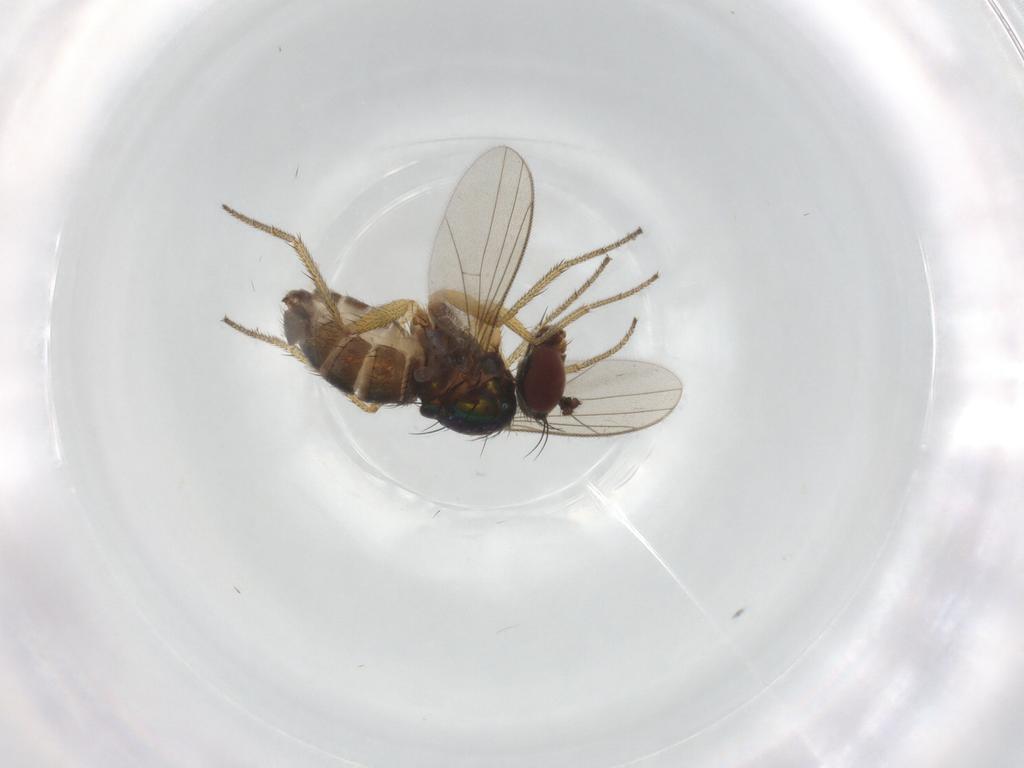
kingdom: Animalia
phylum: Arthropoda
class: Insecta
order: Diptera
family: Chironomidae
